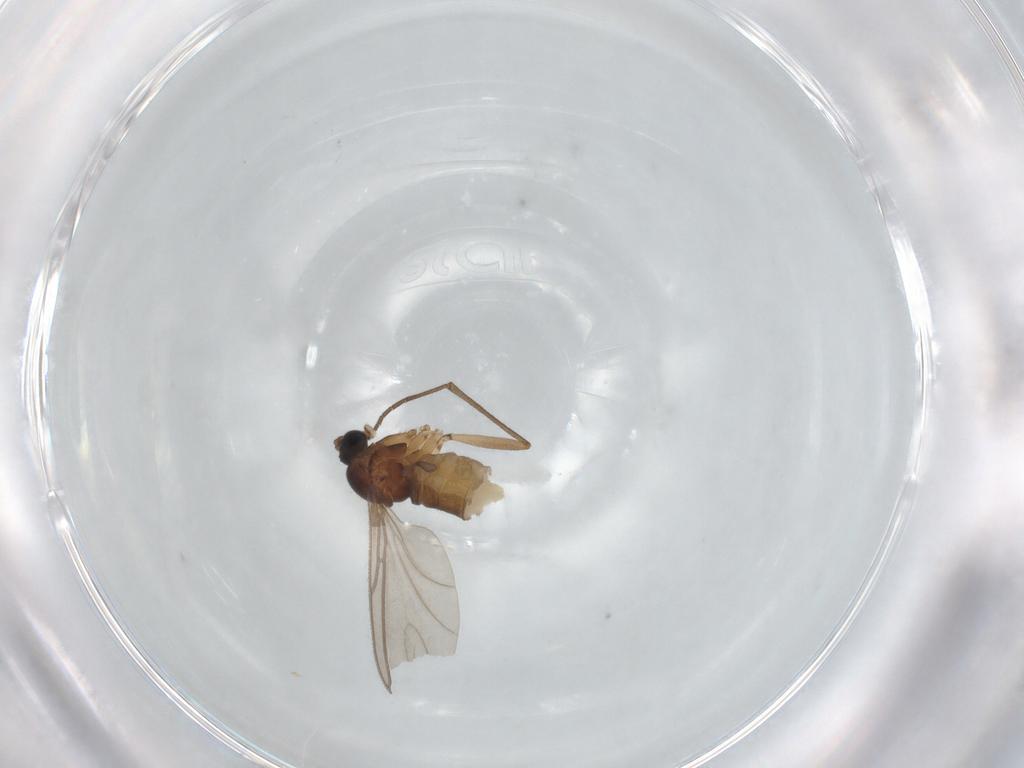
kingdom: Animalia
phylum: Arthropoda
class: Insecta
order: Diptera
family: Sciaridae
